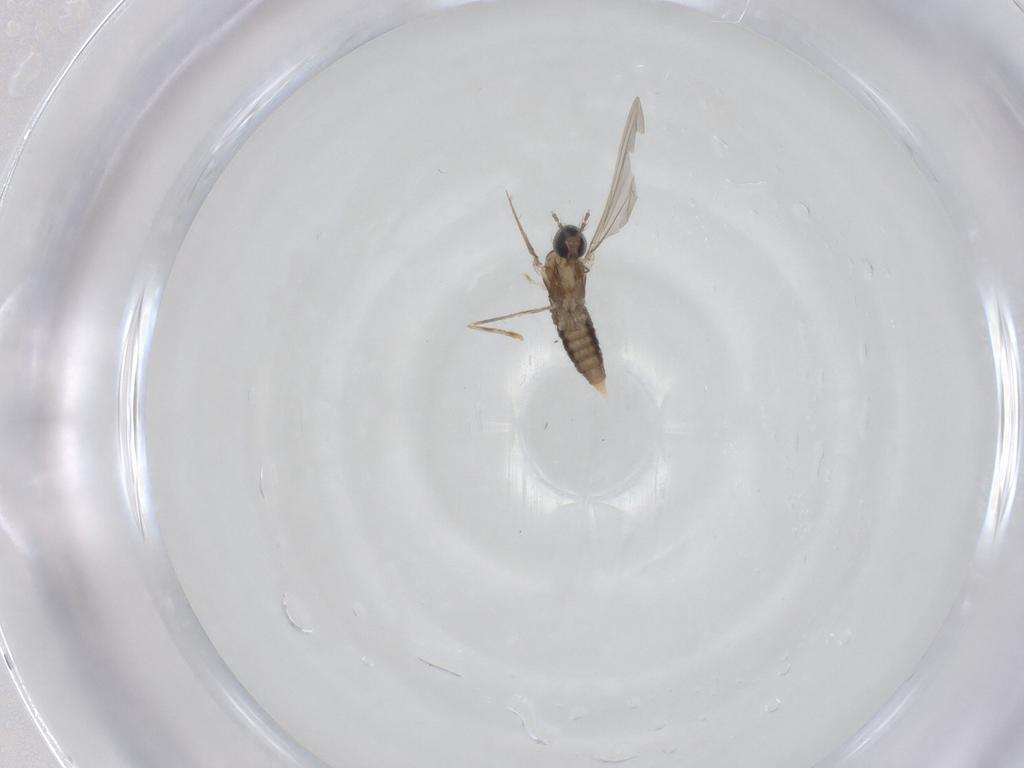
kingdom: Animalia
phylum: Arthropoda
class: Insecta
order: Diptera
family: Cecidomyiidae
